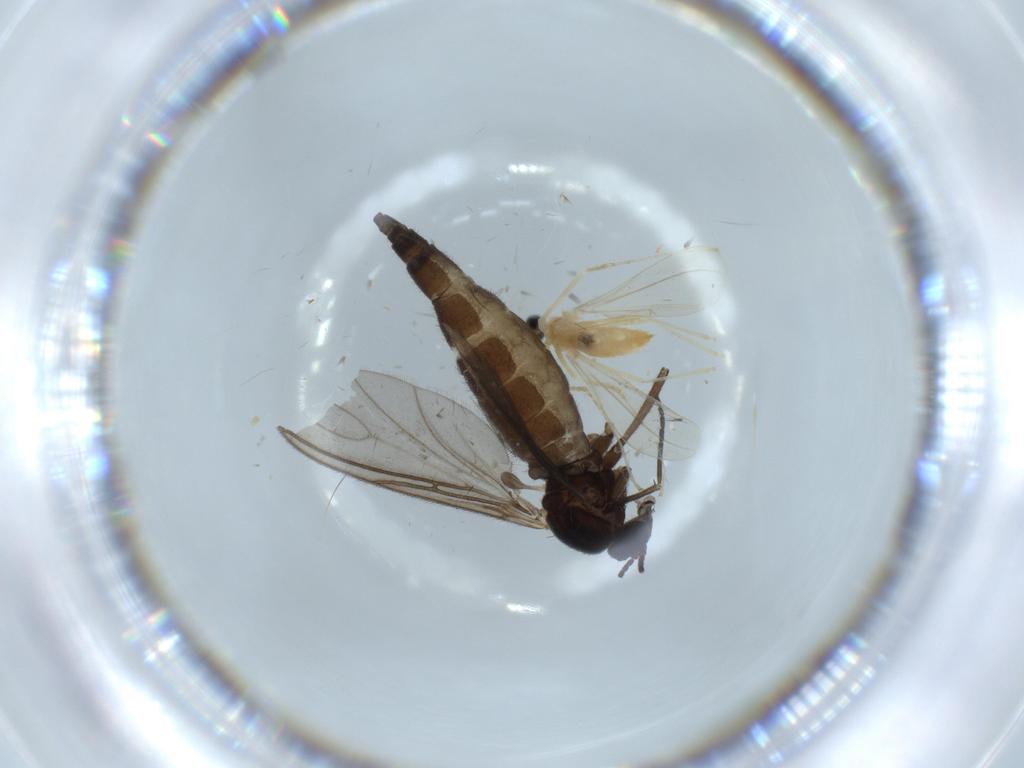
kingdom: Animalia
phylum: Arthropoda
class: Insecta
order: Diptera
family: Sciaridae
